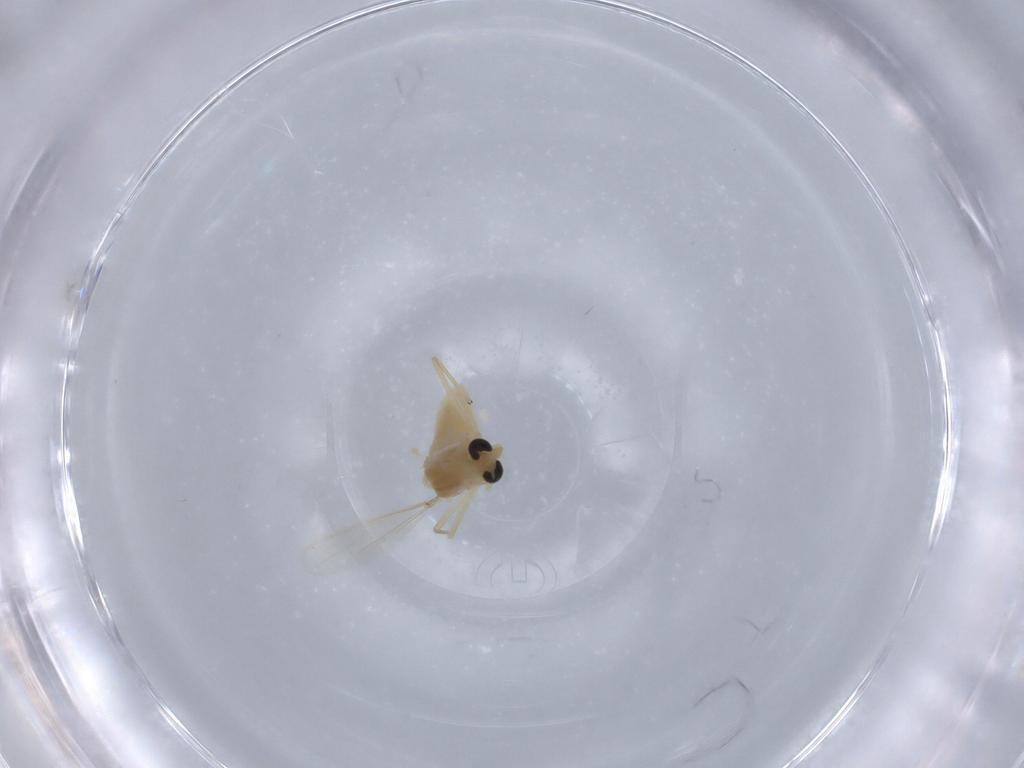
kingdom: Animalia
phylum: Arthropoda
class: Insecta
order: Diptera
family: Chironomidae
